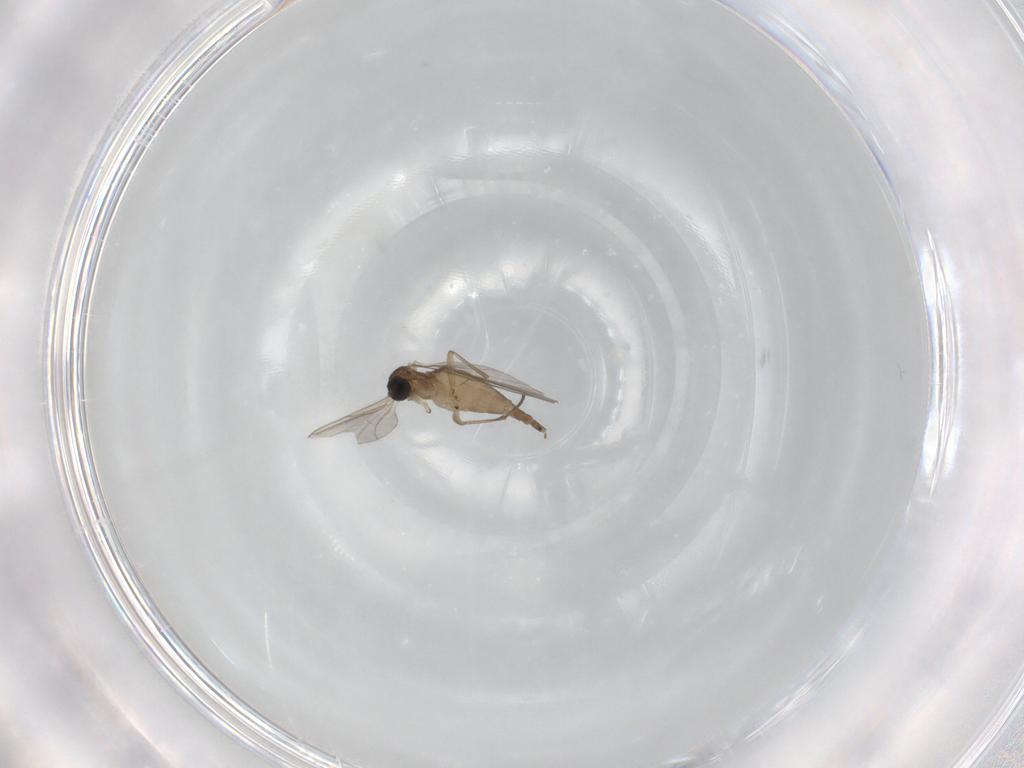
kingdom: Animalia
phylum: Arthropoda
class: Insecta
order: Diptera
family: Sciaridae
